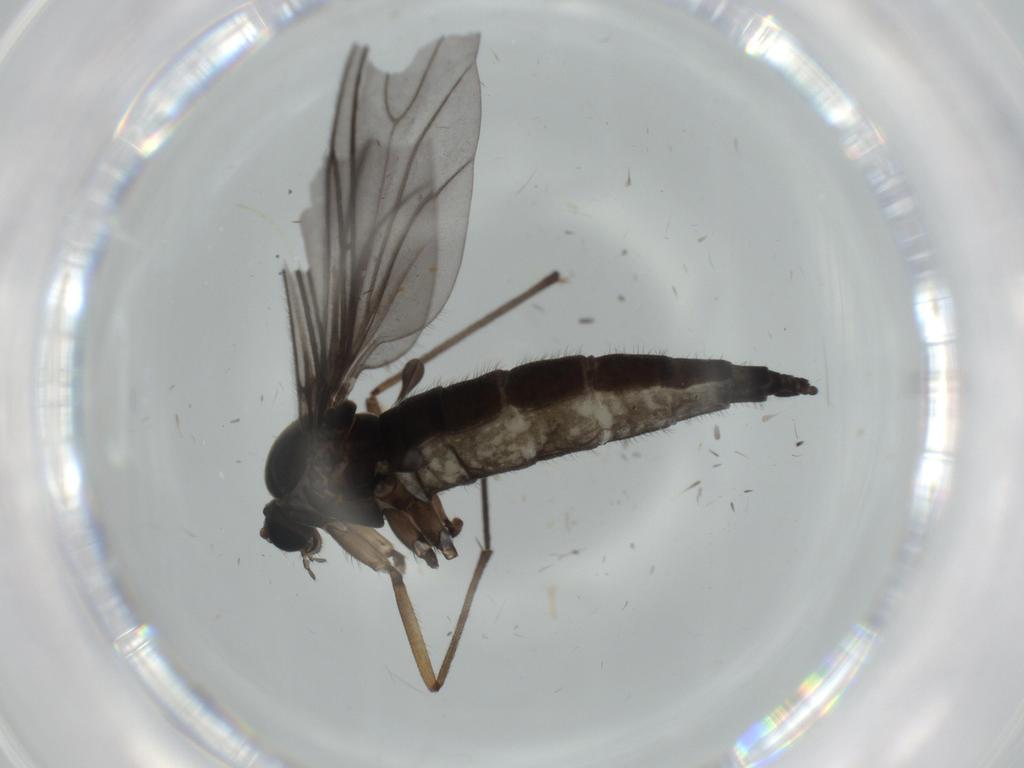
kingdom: Animalia
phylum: Arthropoda
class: Insecta
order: Diptera
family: Sciaridae
